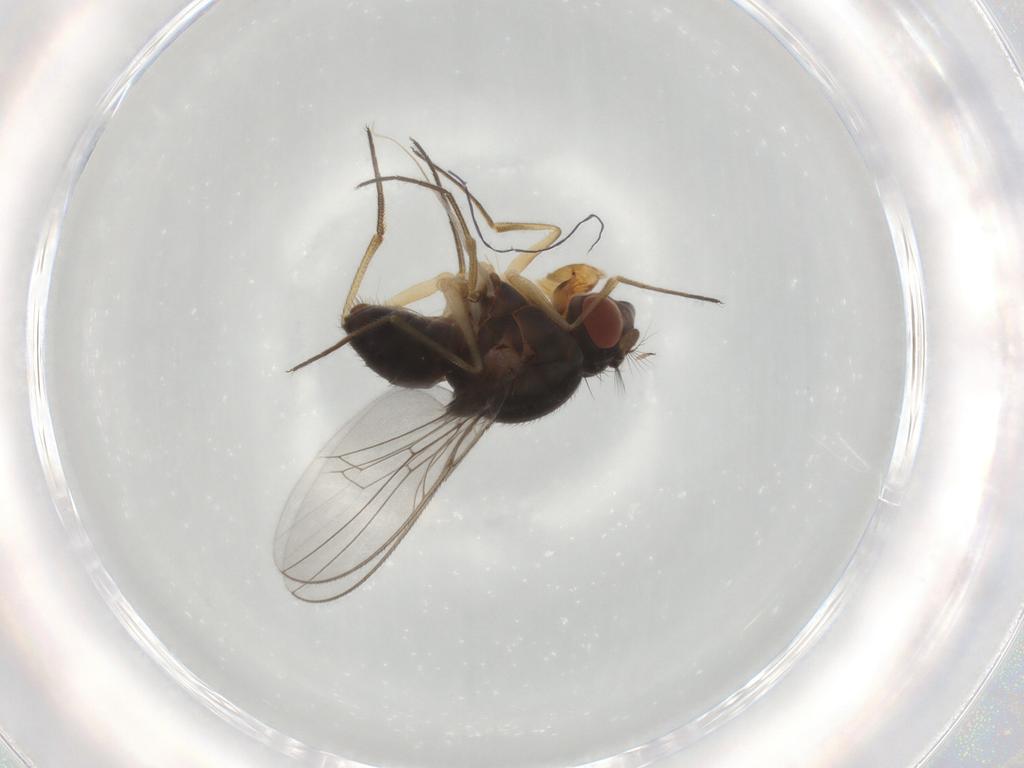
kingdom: Animalia
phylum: Arthropoda
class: Insecta
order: Diptera
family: Ephydridae
